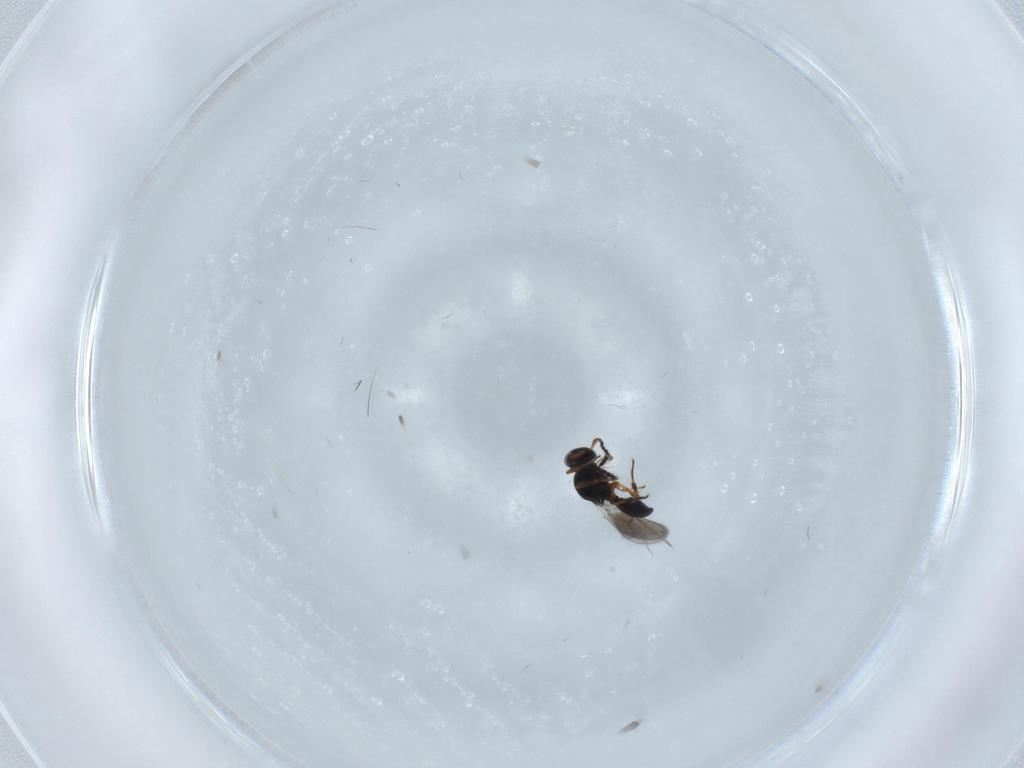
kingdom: Animalia
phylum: Arthropoda
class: Insecta
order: Hymenoptera
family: Platygastridae
